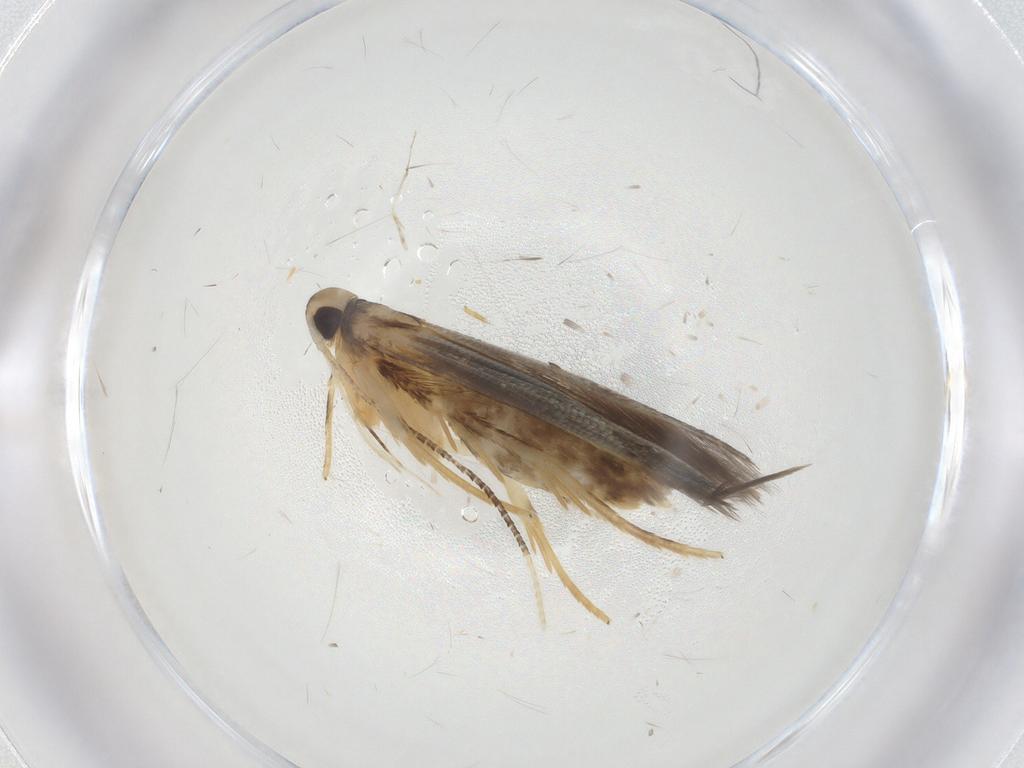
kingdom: Animalia
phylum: Arthropoda
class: Insecta
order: Lepidoptera
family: Cosmopterigidae
